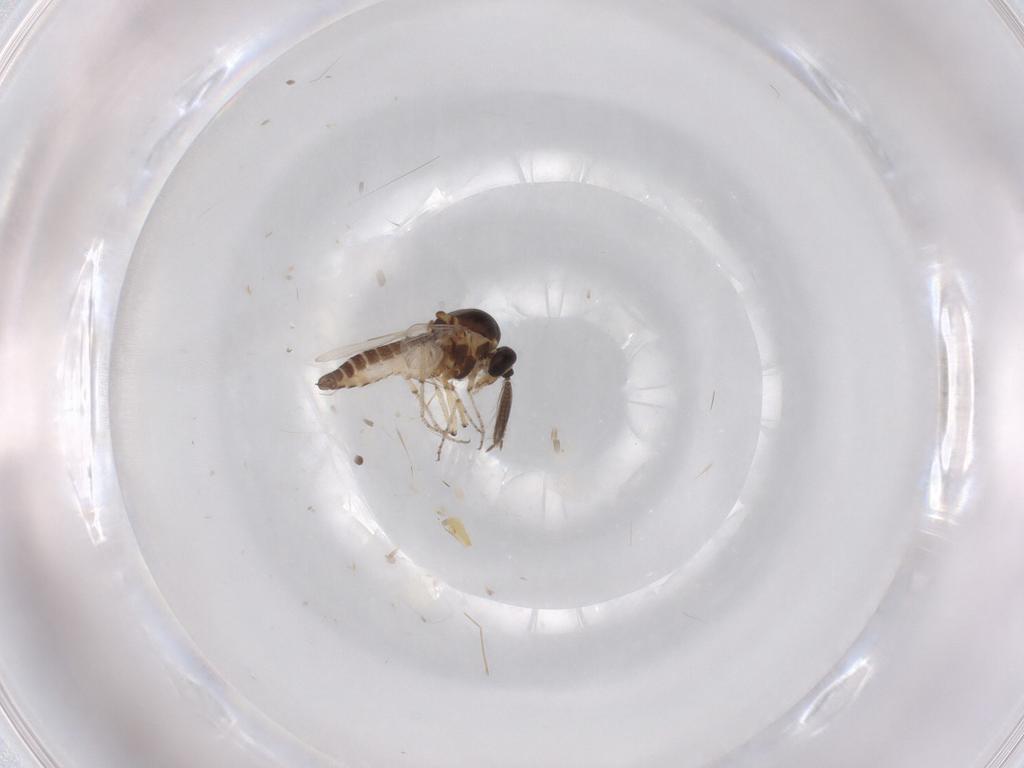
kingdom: Animalia
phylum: Arthropoda
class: Insecta
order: Diptera
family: Ceratopogonidae
